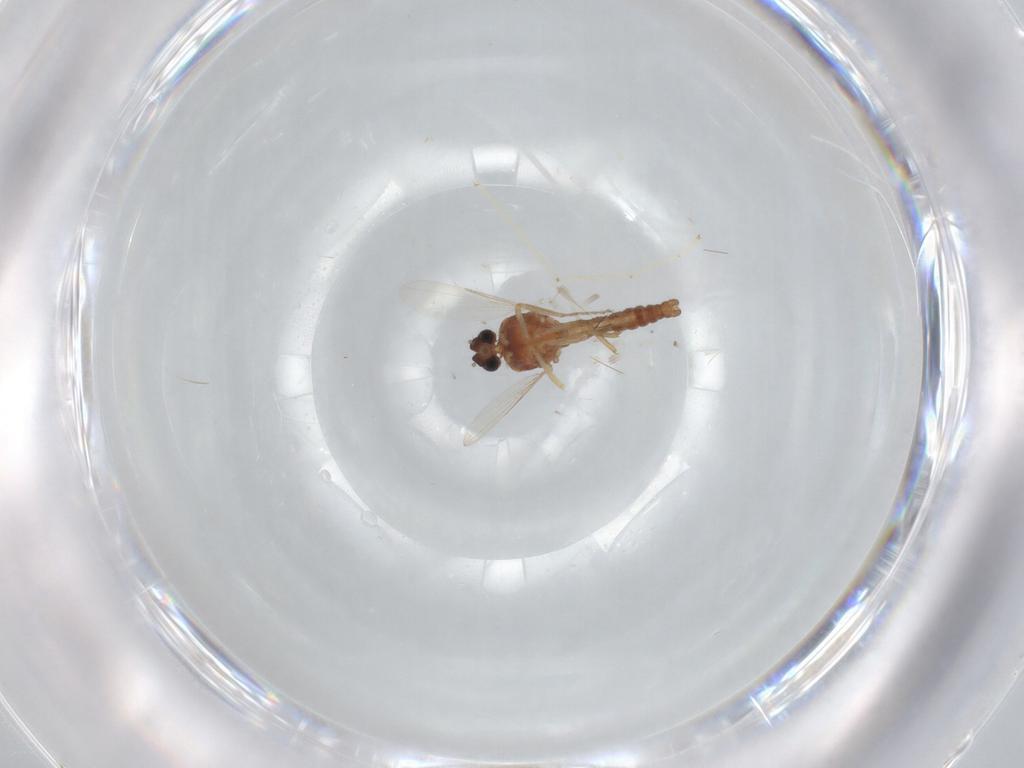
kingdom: Animalia
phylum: Arthropoda
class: Insecta
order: Diptera
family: Ceratopogonidae
